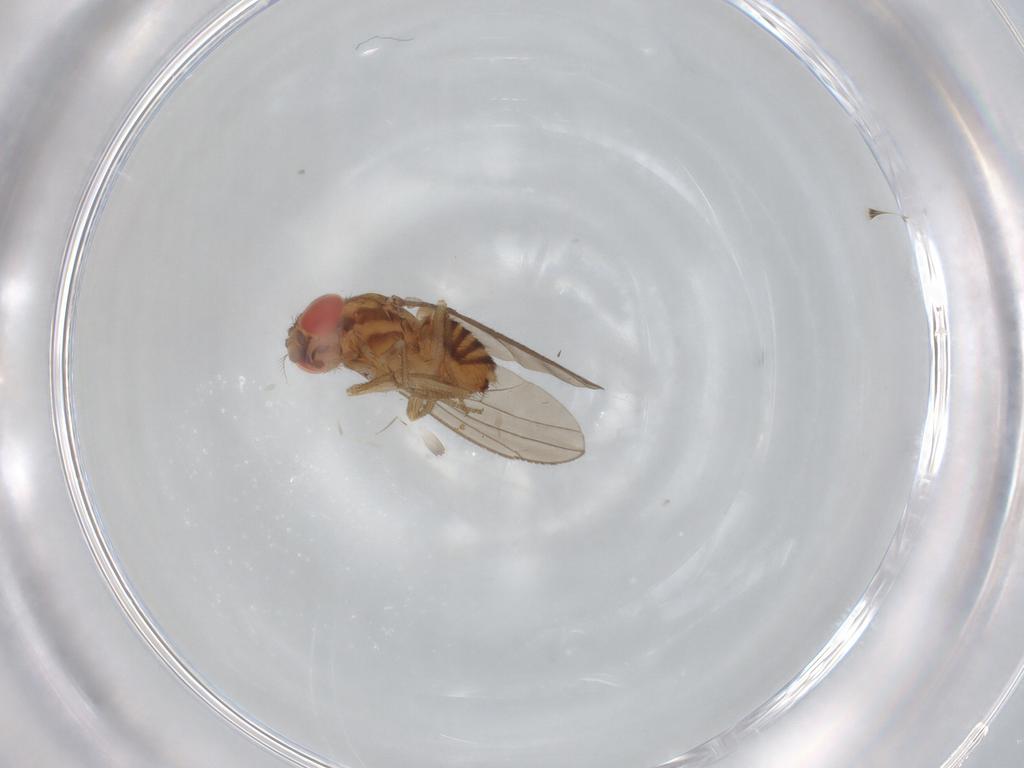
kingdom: Animalia
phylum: Arthropoda
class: Insecta
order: Diptera
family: Drosophilidae
